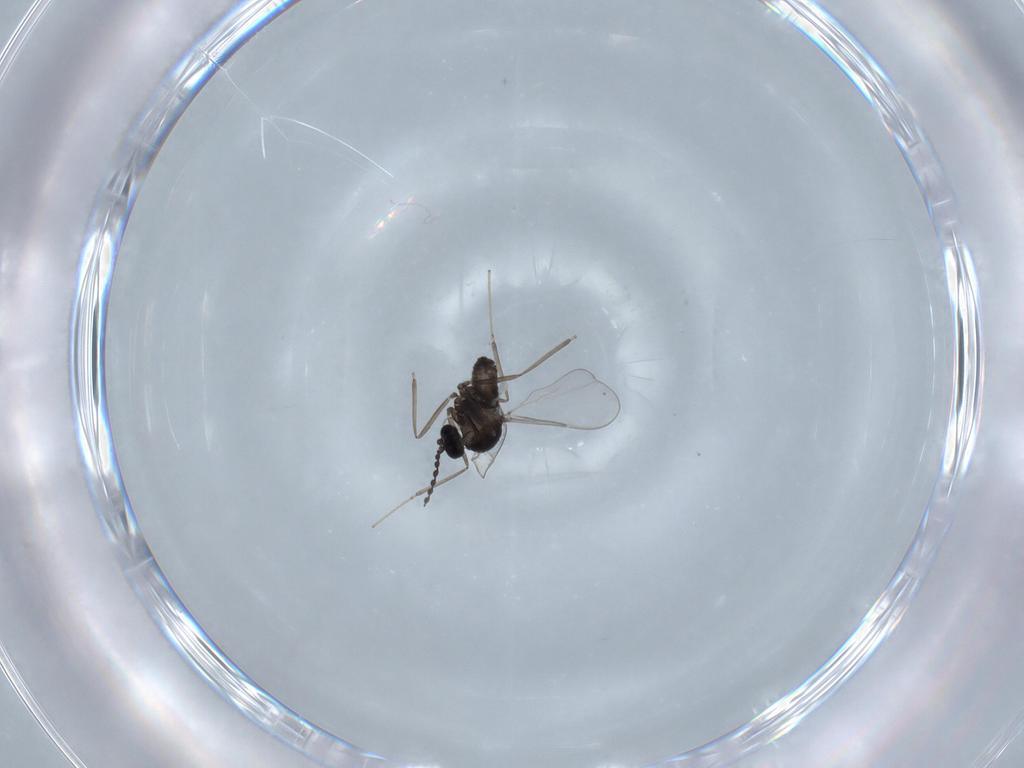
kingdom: Animalia
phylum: Arthropoda
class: Insecta
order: Diptera
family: Cecidomyiidae
